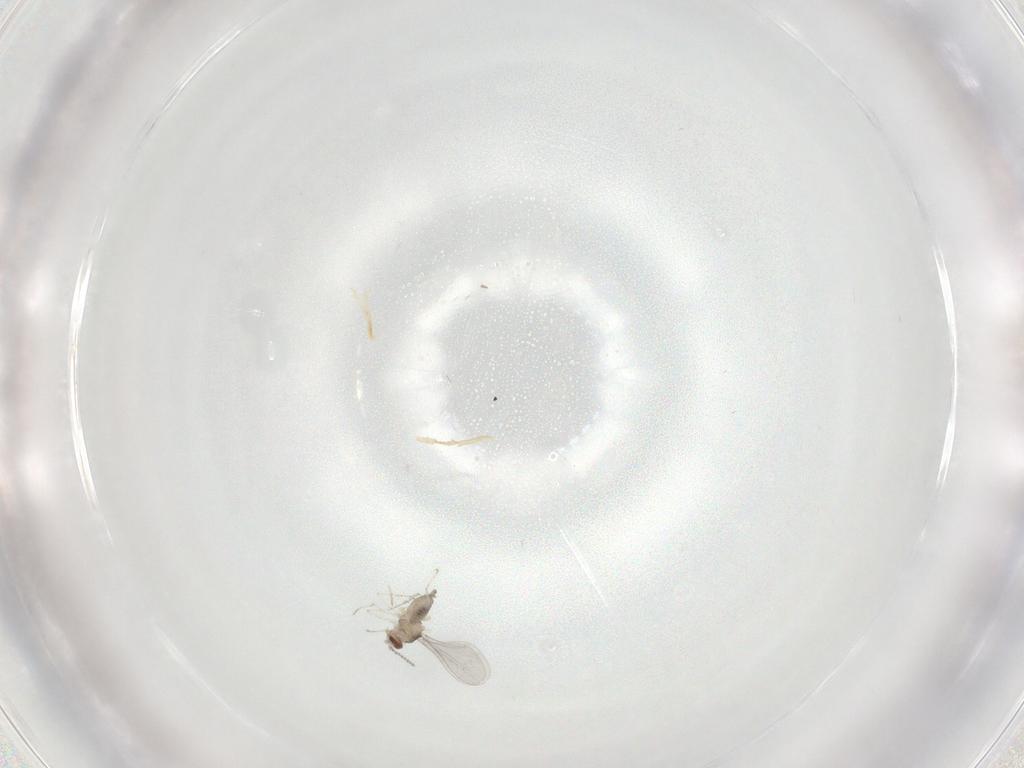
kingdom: Animalia
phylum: Arthropoda
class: Insecta
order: Diptera
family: Cecidomyiidae
